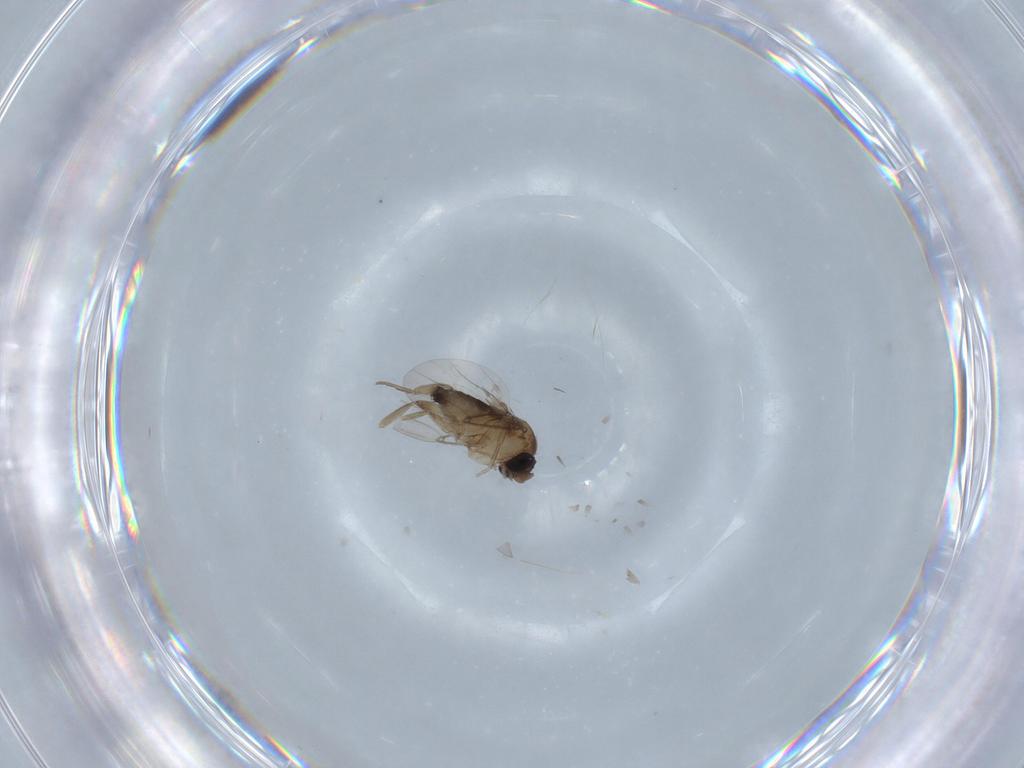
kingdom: Animalia
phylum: Arthropoda
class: Insecta
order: Diptera
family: Phoridae
